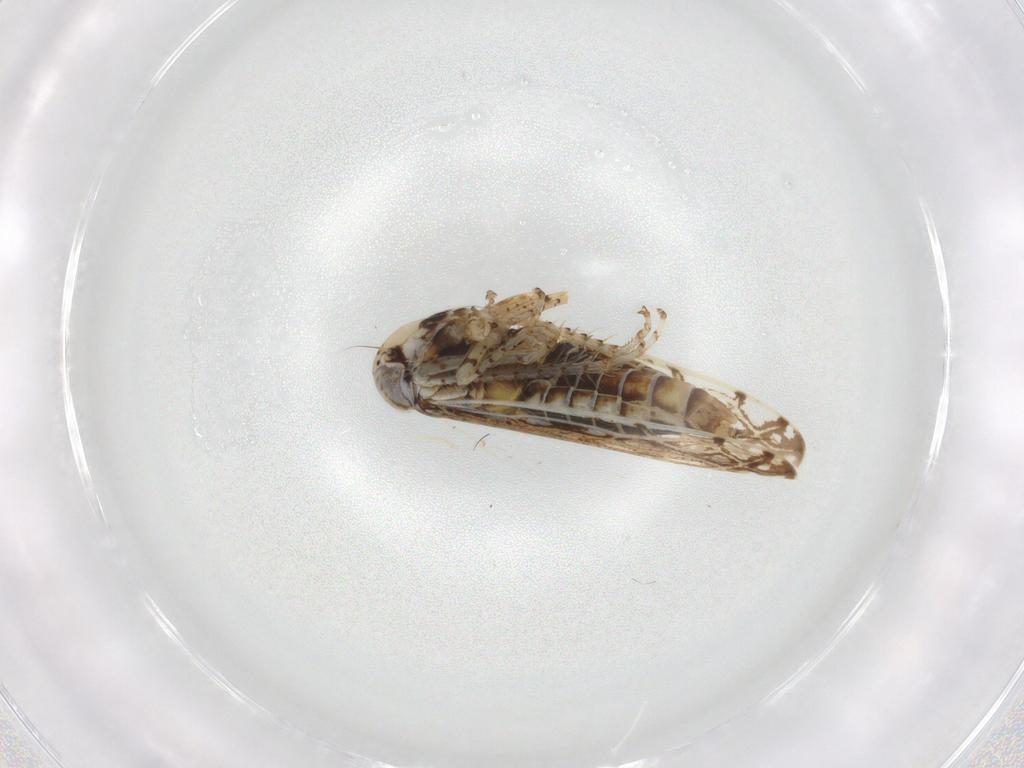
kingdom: Animalia
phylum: Arthropoda
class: Insecta
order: Hemiptera
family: Cicadellidae
